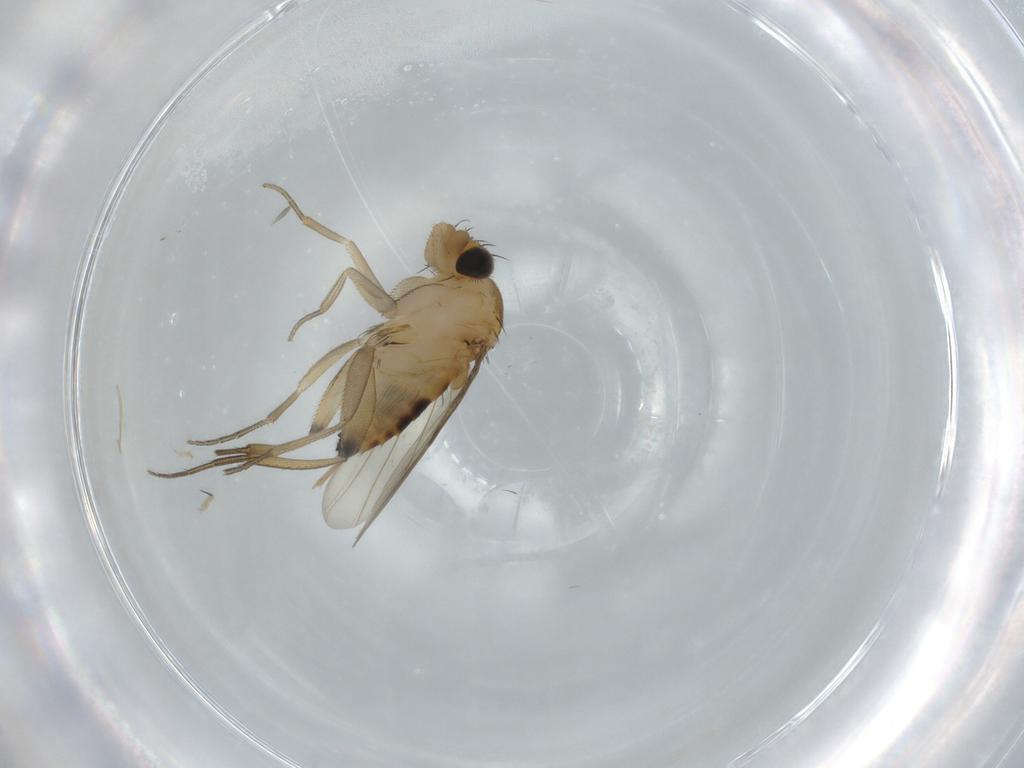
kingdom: Animalia
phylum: Arthropoda
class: Insecta
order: Diptera
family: Phoridae
